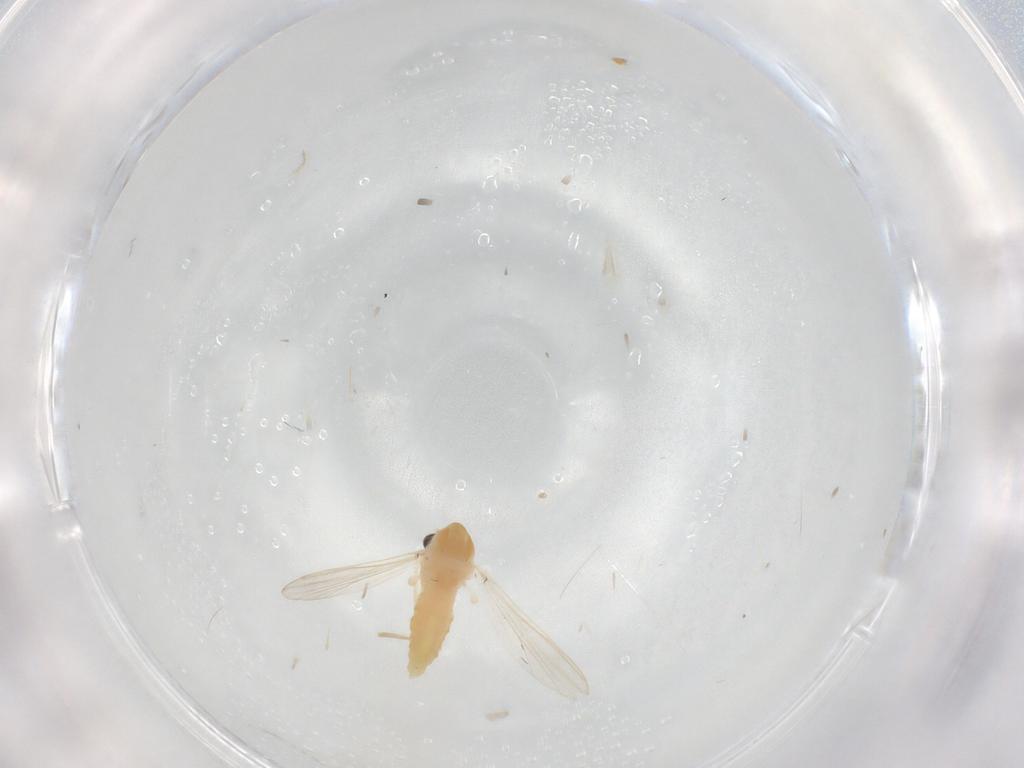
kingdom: Animalia
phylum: Arthropoda
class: Insecta
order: Diptera
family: Chironomidae
